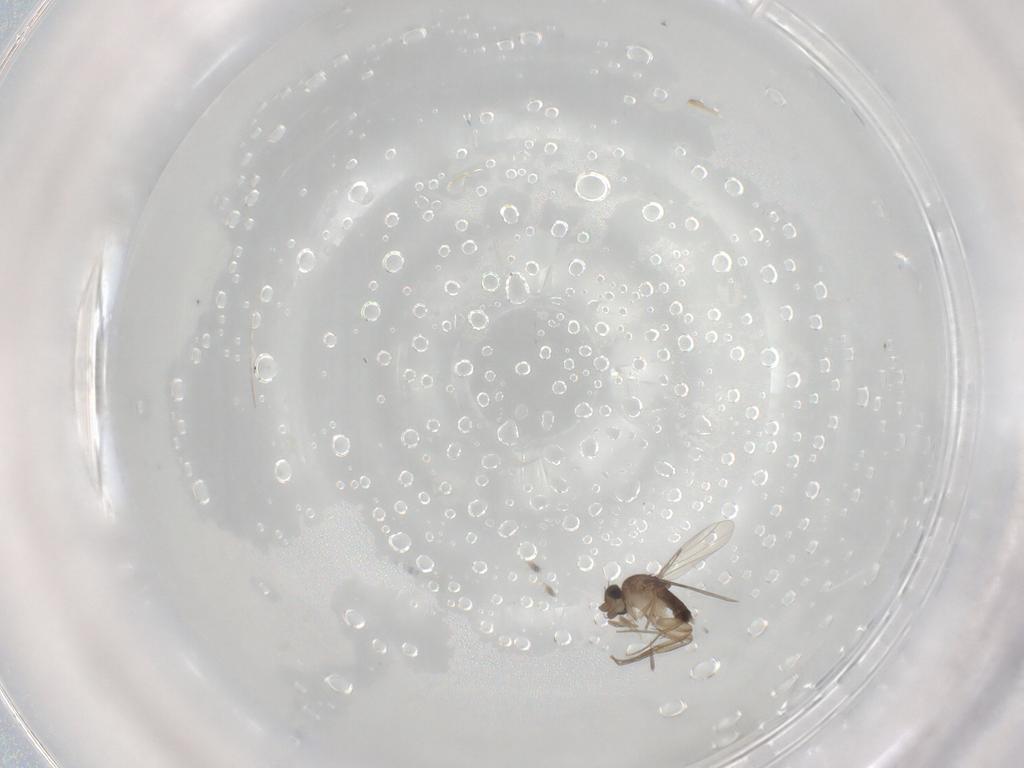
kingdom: Animalia
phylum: Arthropoda
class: Insecta
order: Diptera
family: Phoridae
